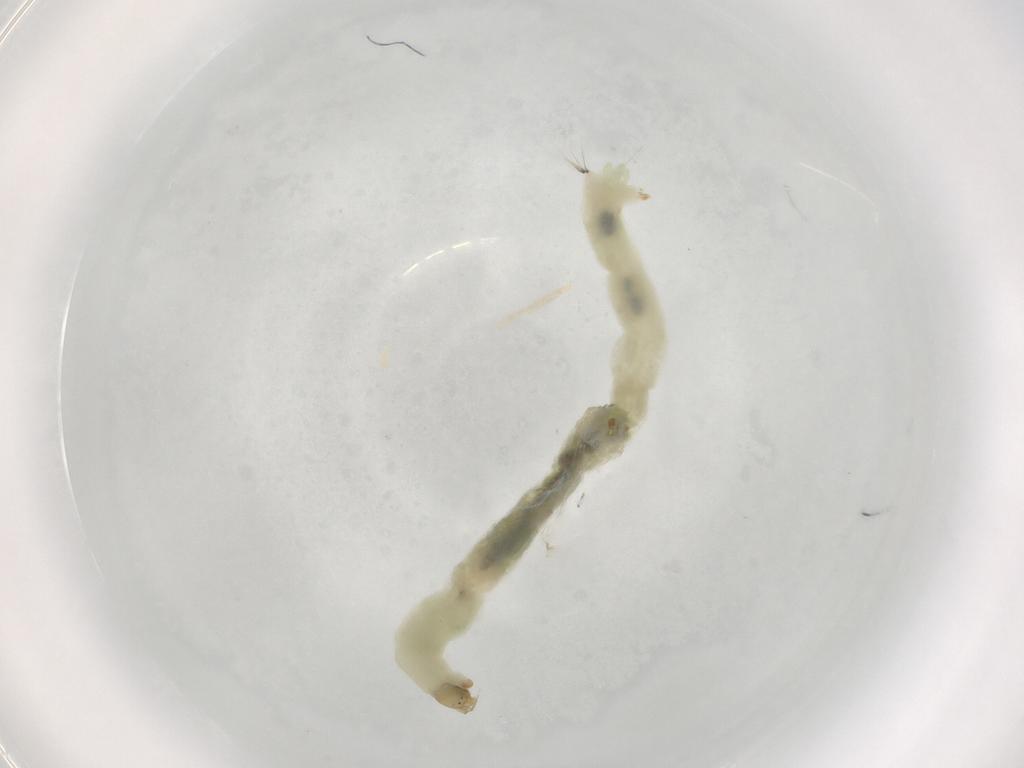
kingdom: Animalia
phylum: Arthropoda
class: Insecta
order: Diptera
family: Chironomidae
